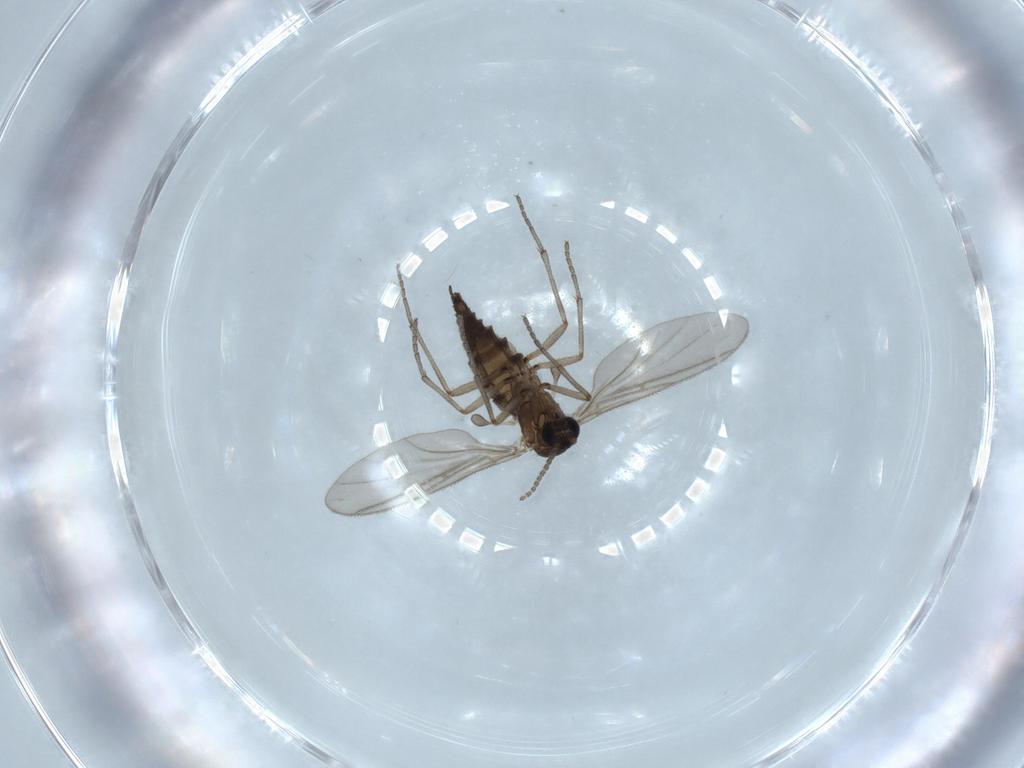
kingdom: Animalia
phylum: Arthropoda
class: Insecta
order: Diptera
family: Sciaridae
